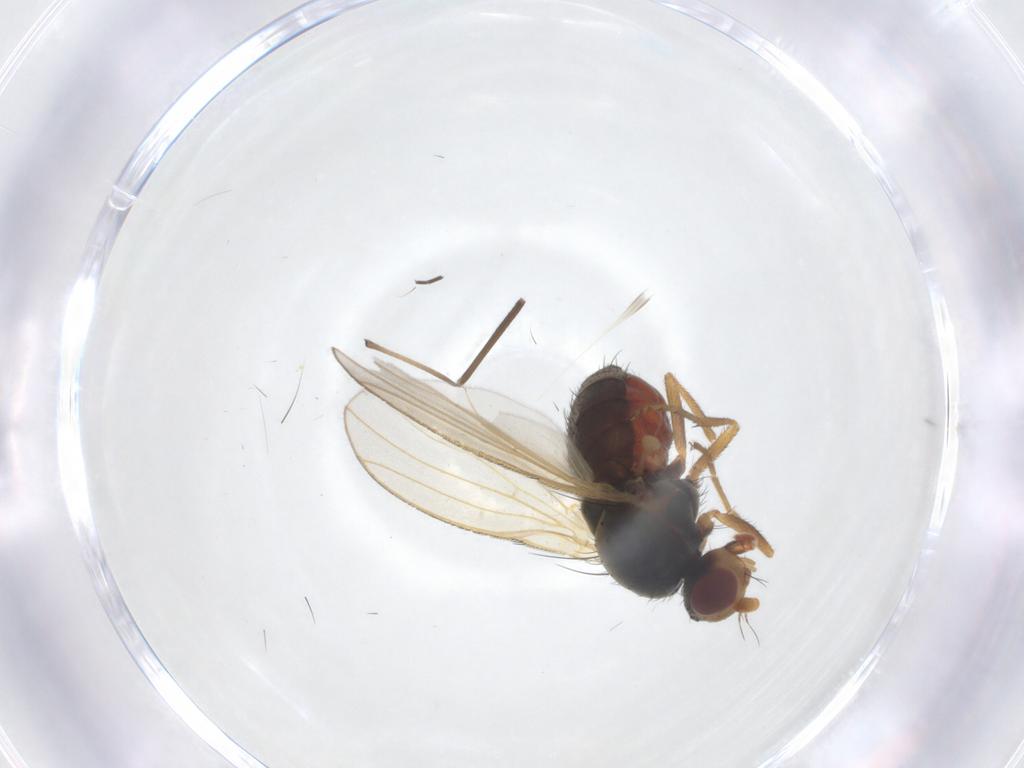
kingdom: Animalia
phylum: Arthropoda
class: Insecta
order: Diptera
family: Heleomyzidae
